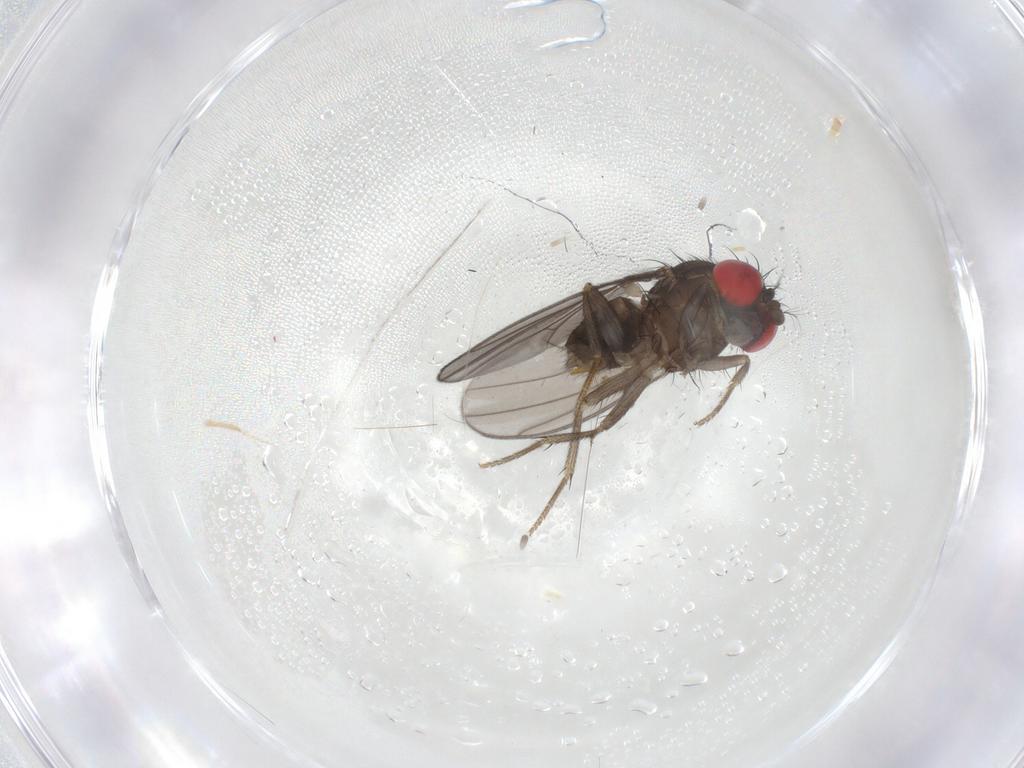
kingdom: Animalia
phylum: Arthropoda
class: Insecta
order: Diptera
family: Drosophilidae
